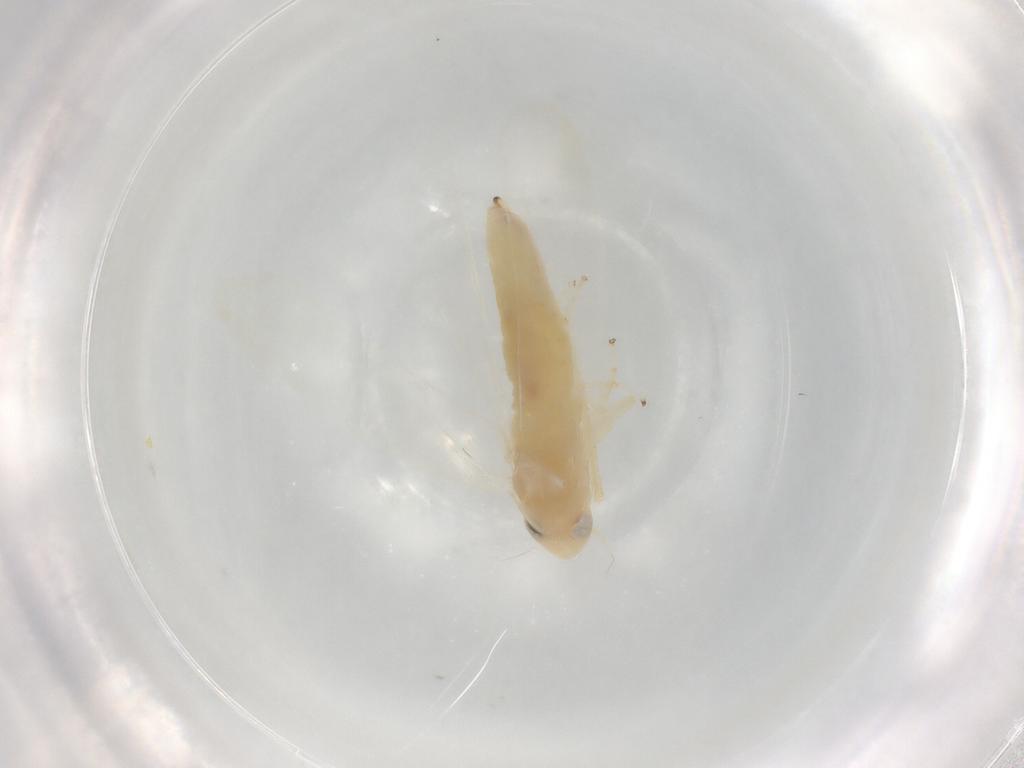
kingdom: Animalia
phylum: Arthropoda
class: Insecta
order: Hemiptera
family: Cicadellidae
